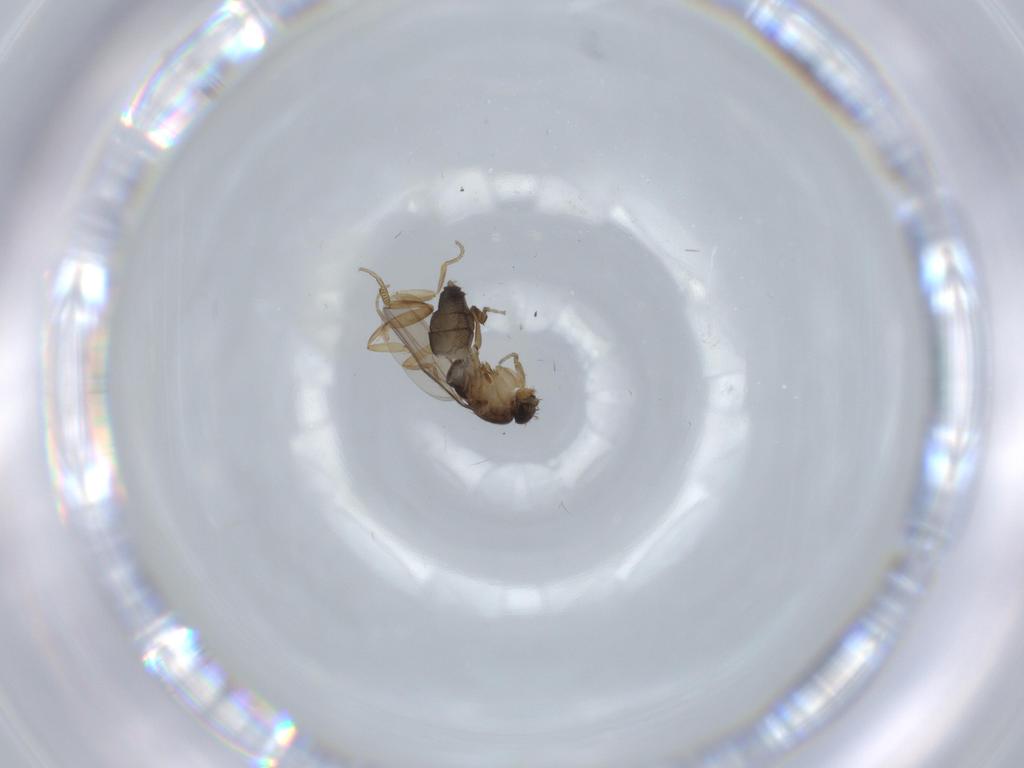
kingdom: Animalia
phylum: Arthropoda
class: Insecta
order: Diptera
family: Phoridae
